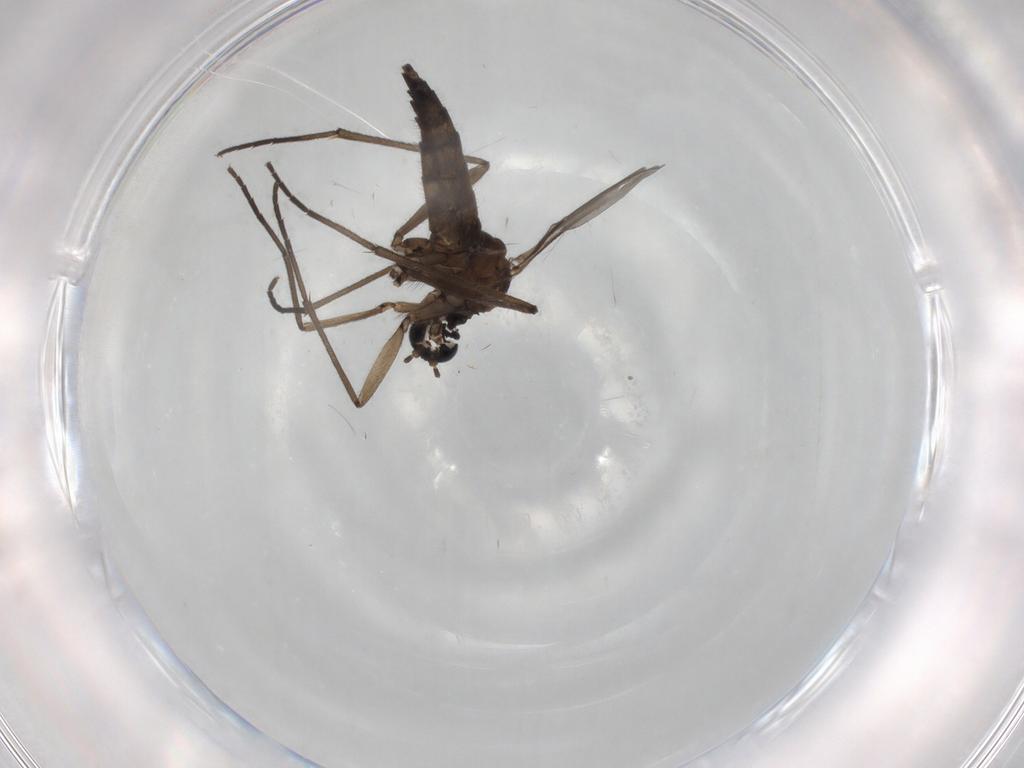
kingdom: Animalia
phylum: Arthropoda
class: Insecta
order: Diptera
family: Sciaridae
